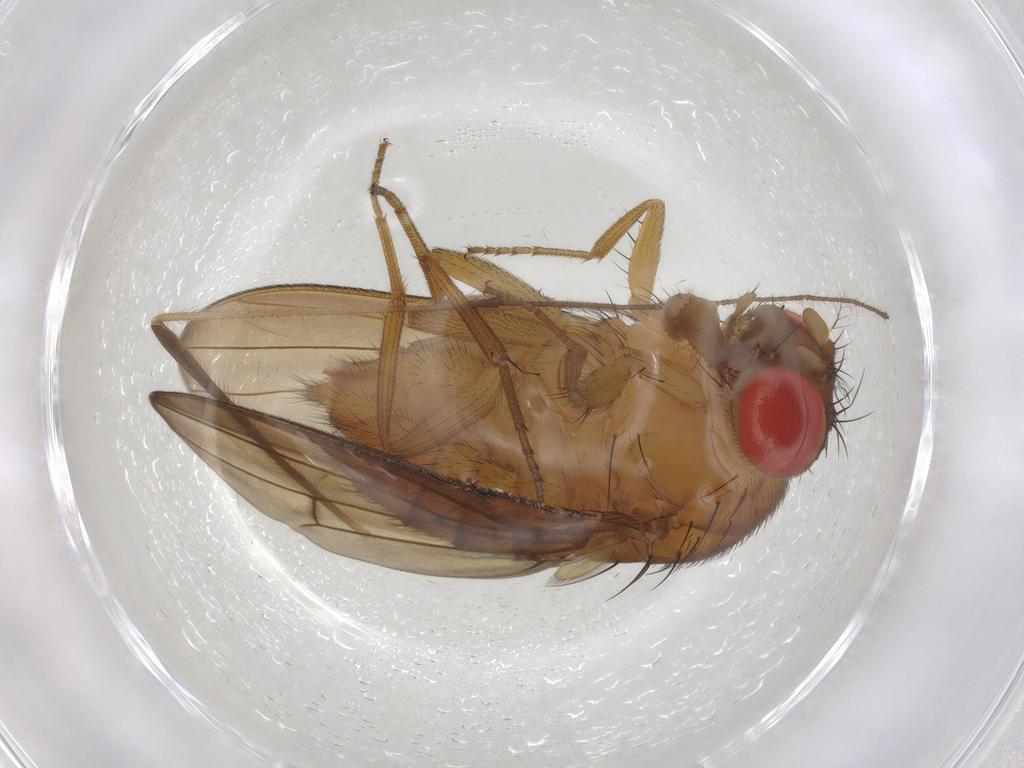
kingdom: Animalia
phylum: Arthropoda
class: Insecta
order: Diptera
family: Drosophilidae
